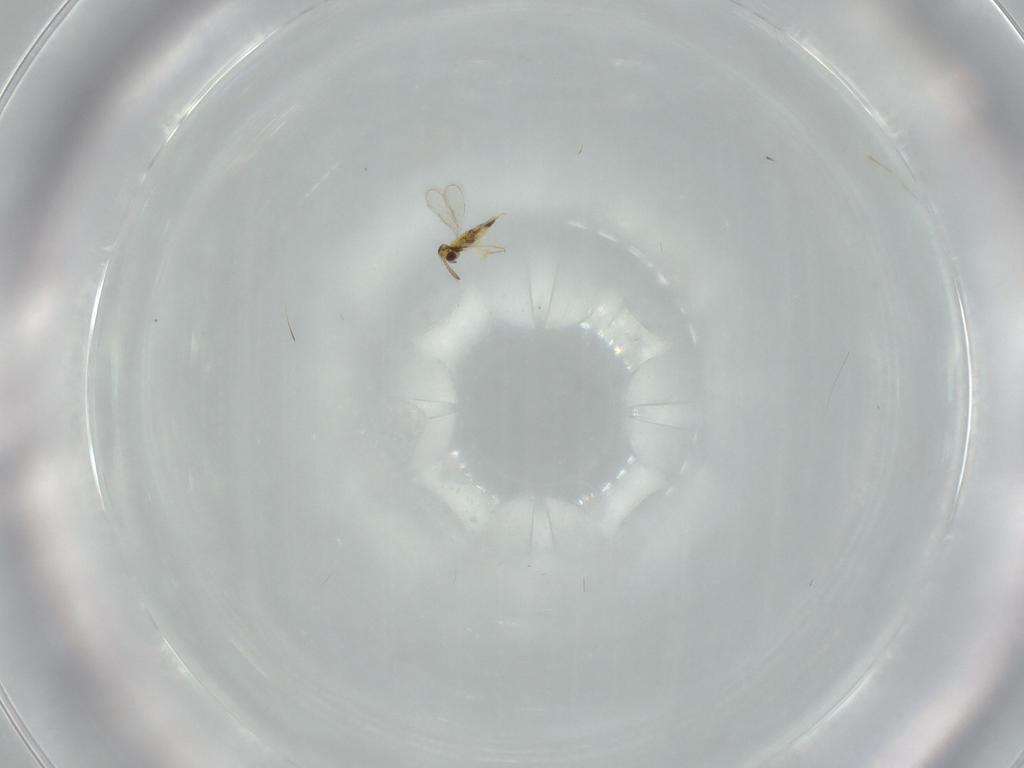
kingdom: Animalia
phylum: Arthropoda
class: Insecta
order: Hymenoptera
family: Aphelinidae
